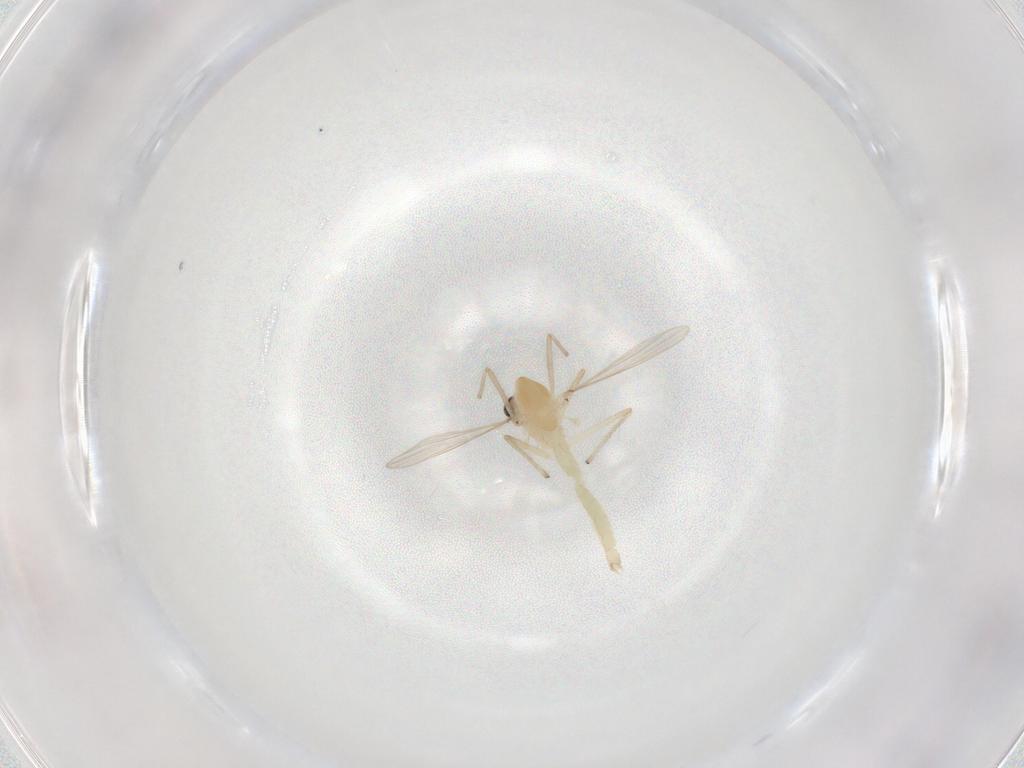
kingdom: Animalia
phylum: Arthropoda
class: Insecta
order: Diptera
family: Chironomidae
